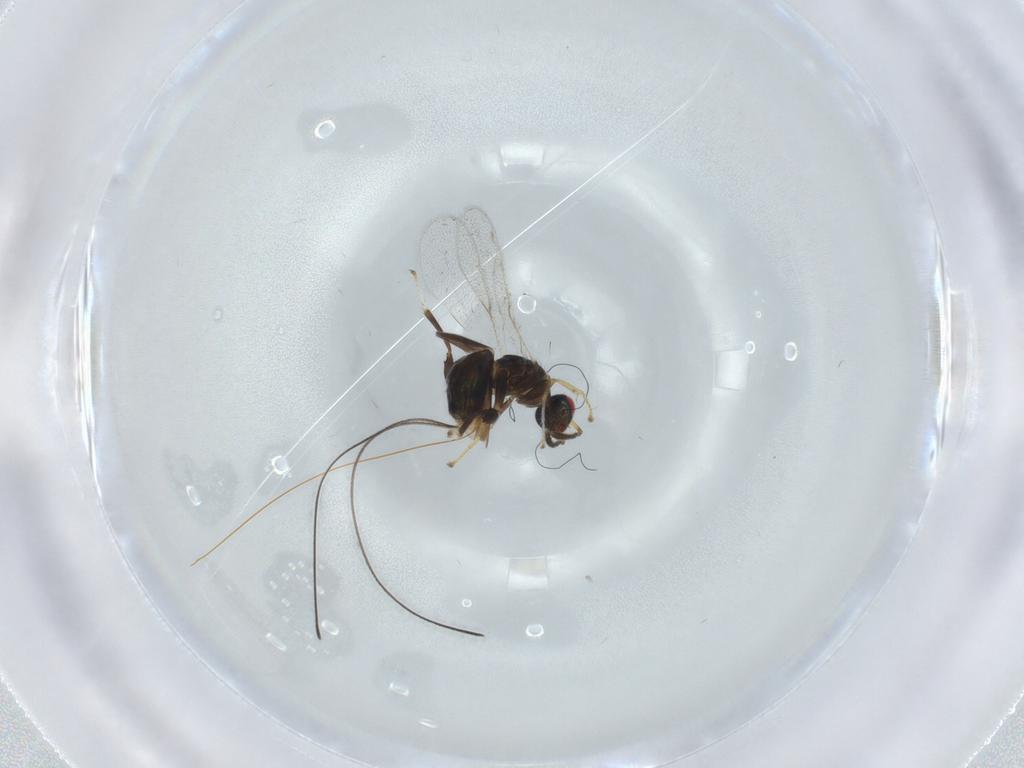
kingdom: Animalia
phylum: Arthropoda
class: Insecta
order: Hymenoptera
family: Torymidae
